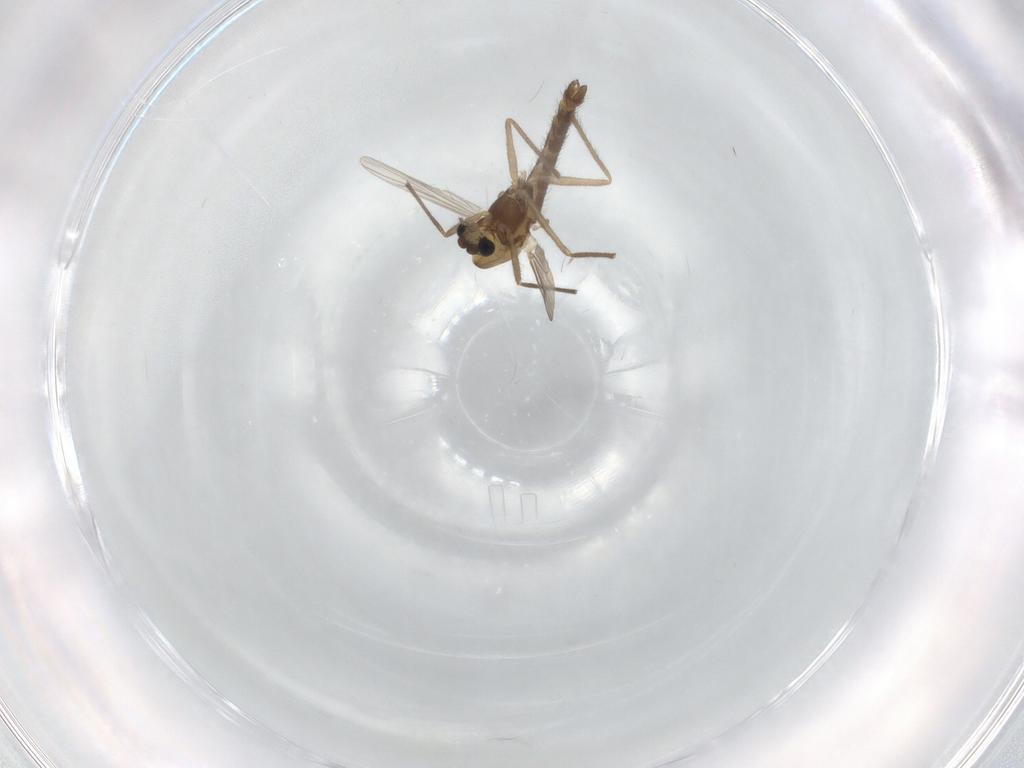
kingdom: Animalia
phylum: Arthropoda
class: Insecta
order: Diptera
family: Chironomidae
